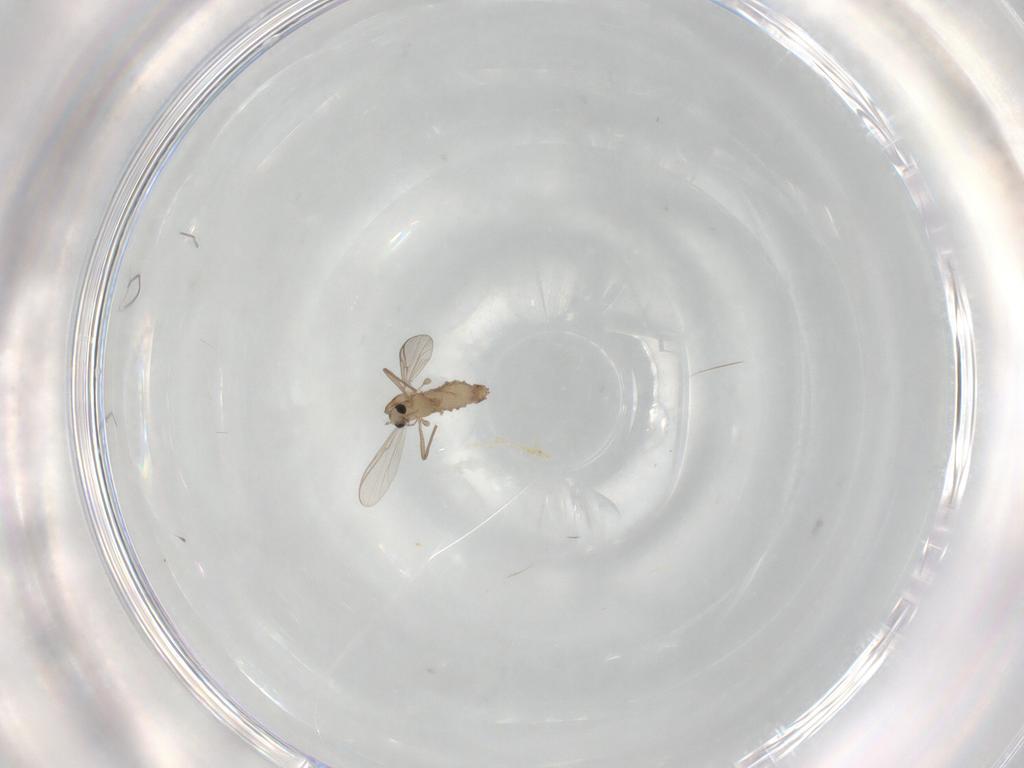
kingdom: Animalia
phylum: Arthropoda
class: Insecta
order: Diptera
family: Chironomidae
